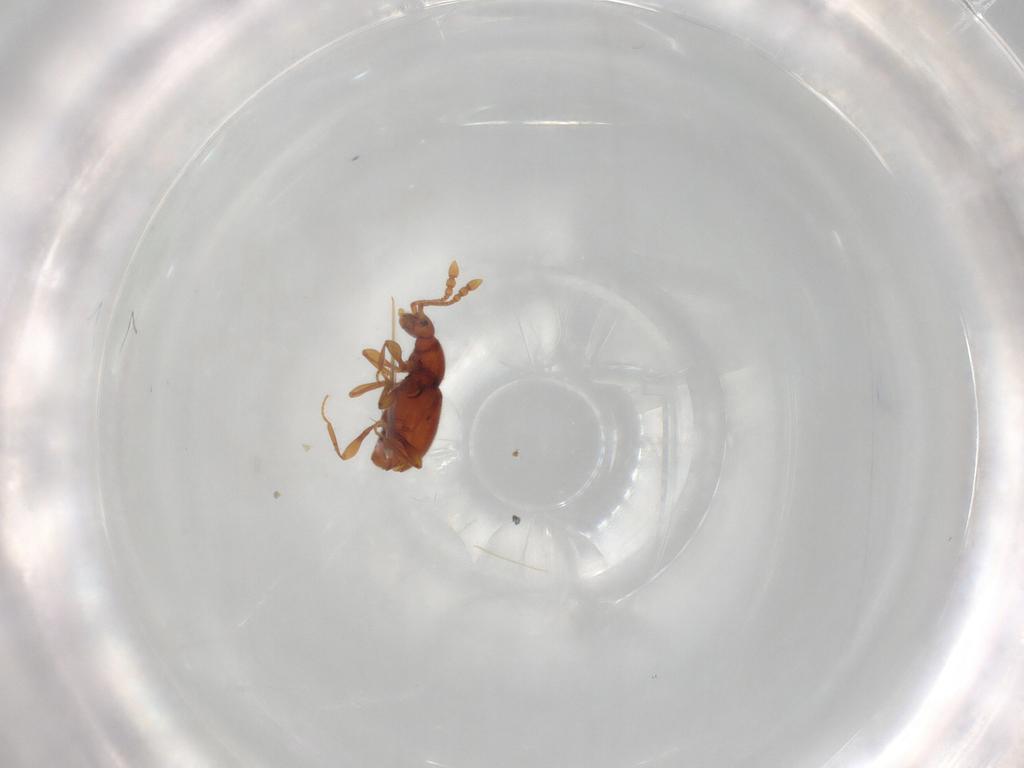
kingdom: Animalia
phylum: Arthropoda
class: Insecta
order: Coleoptera
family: Staphylinidae
